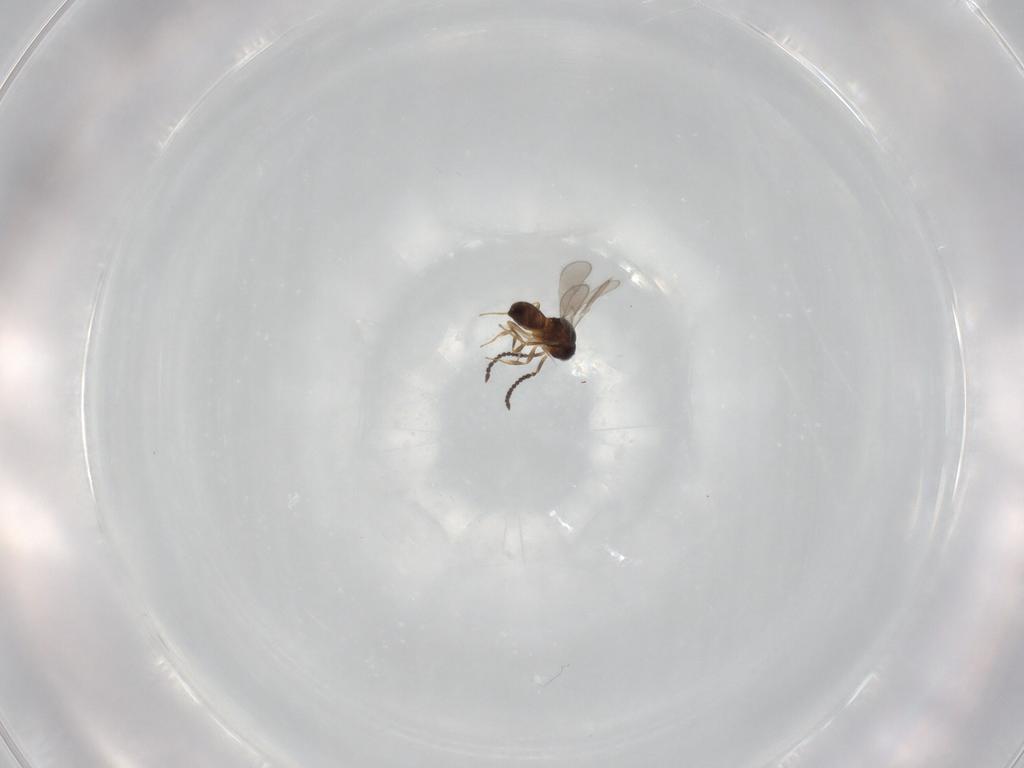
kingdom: Animalia
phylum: Arthropoda
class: Insecta
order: Hymenoptera
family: Scelionidae
